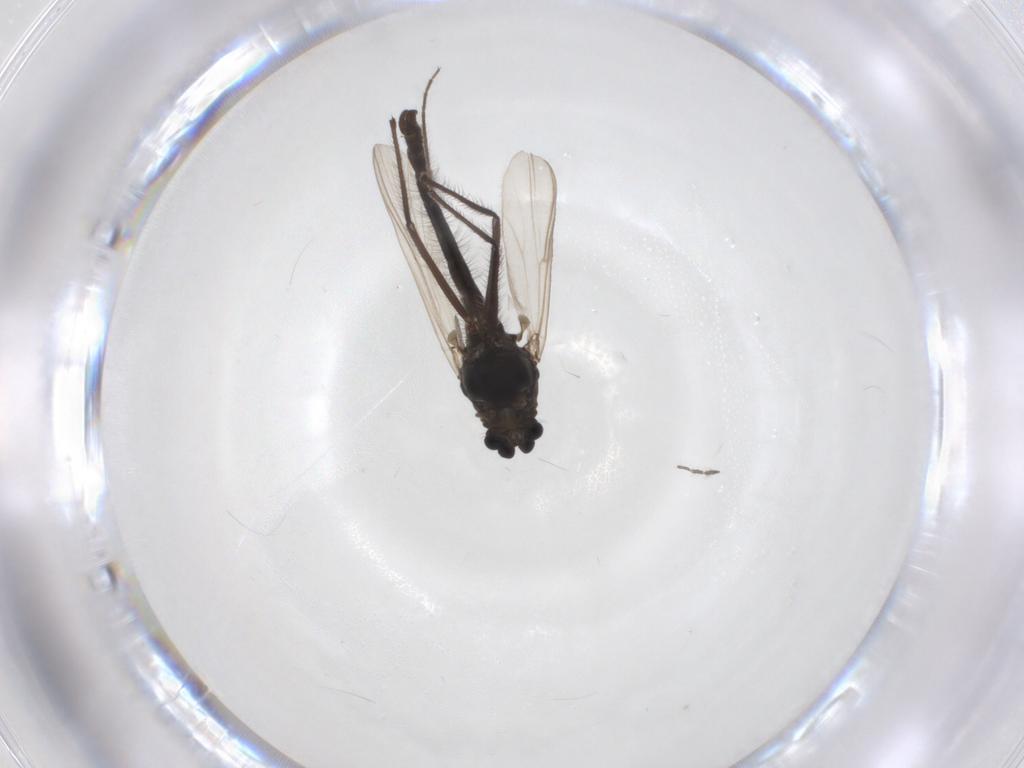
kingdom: Animalia
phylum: Arthropoda
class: Insecta
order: Diptera
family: Chironomidae
